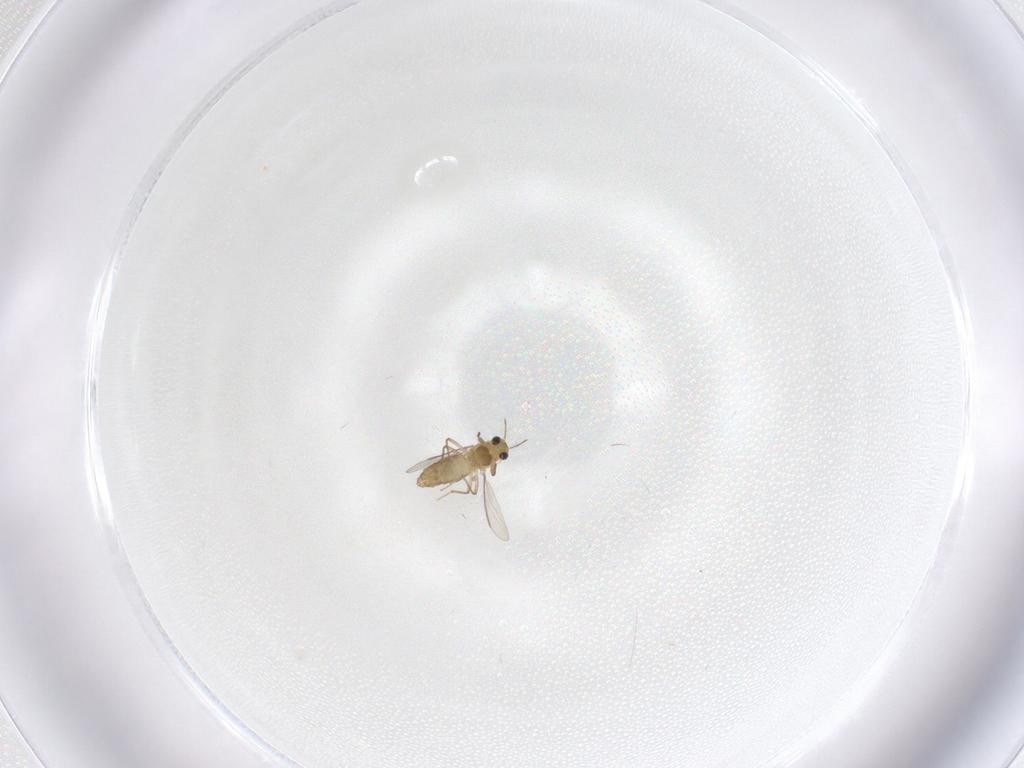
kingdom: Animalia
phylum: Arthropoda
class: Insecta
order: Diptera
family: Chironomidae
